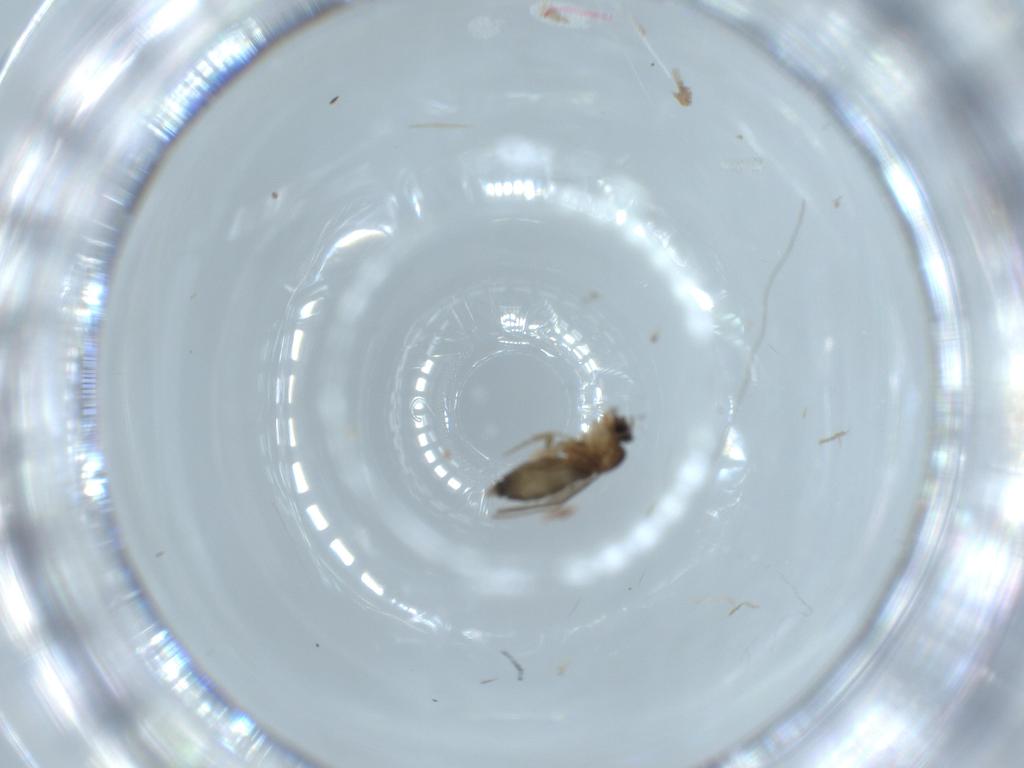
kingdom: Animalia
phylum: Arthropoda
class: Insecta
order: Diptera
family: Phoridae
